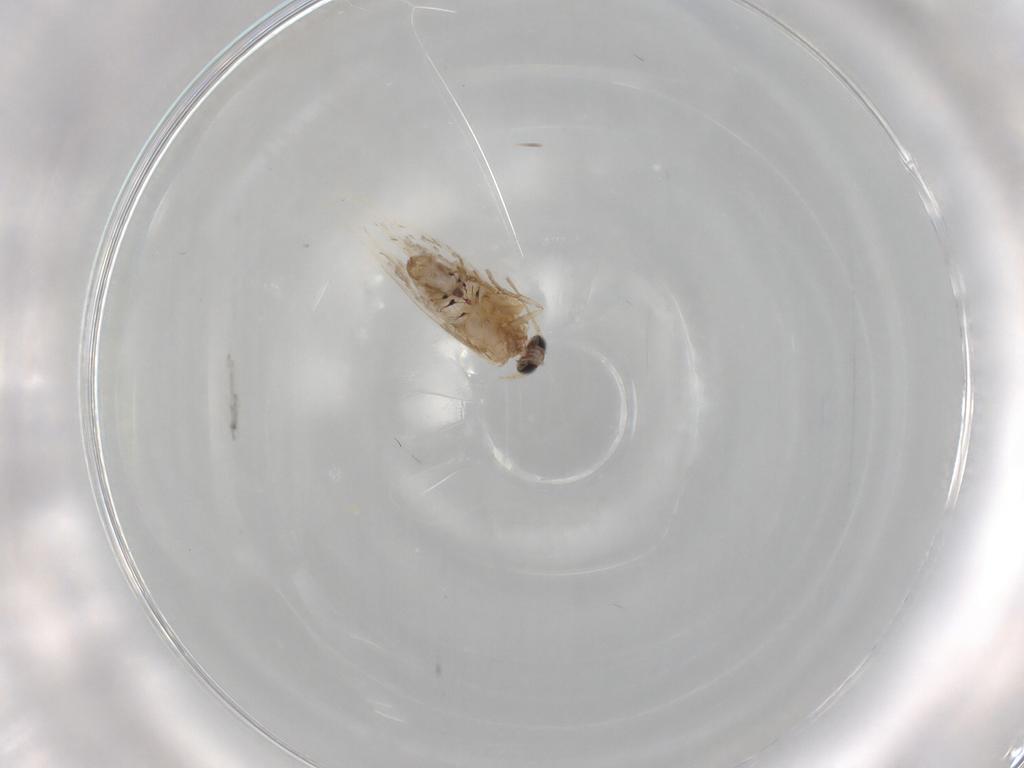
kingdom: Animalia
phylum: Arthropoda
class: Insecta
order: Lepidoptera
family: Nepticulidae
